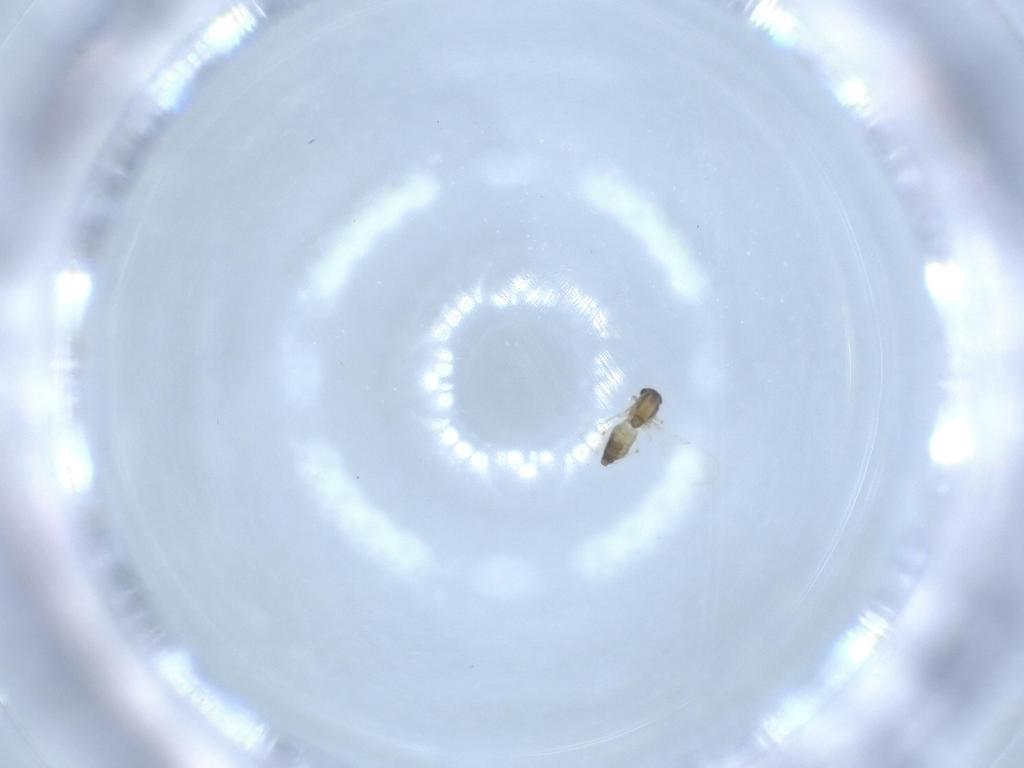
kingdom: Animalia
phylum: Arthropoda
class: Insecta
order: Diptera
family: Chironomidae
